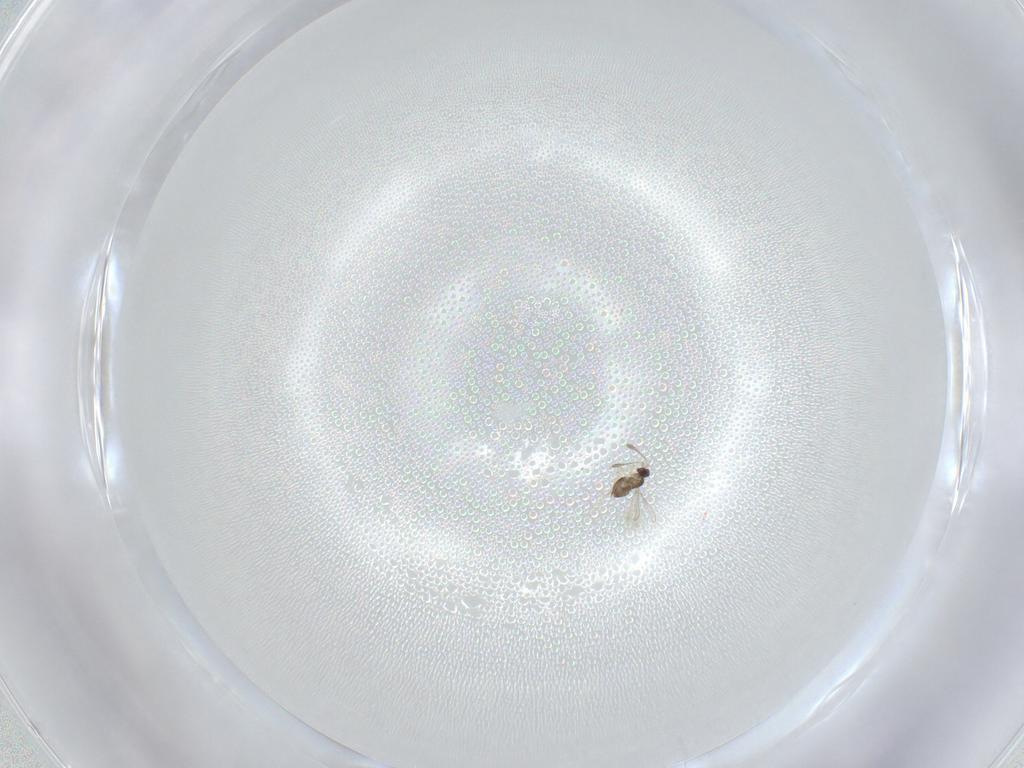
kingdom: Animalia
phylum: Arthropoda
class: Insecta
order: Hymenoptera
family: Mymaridae
